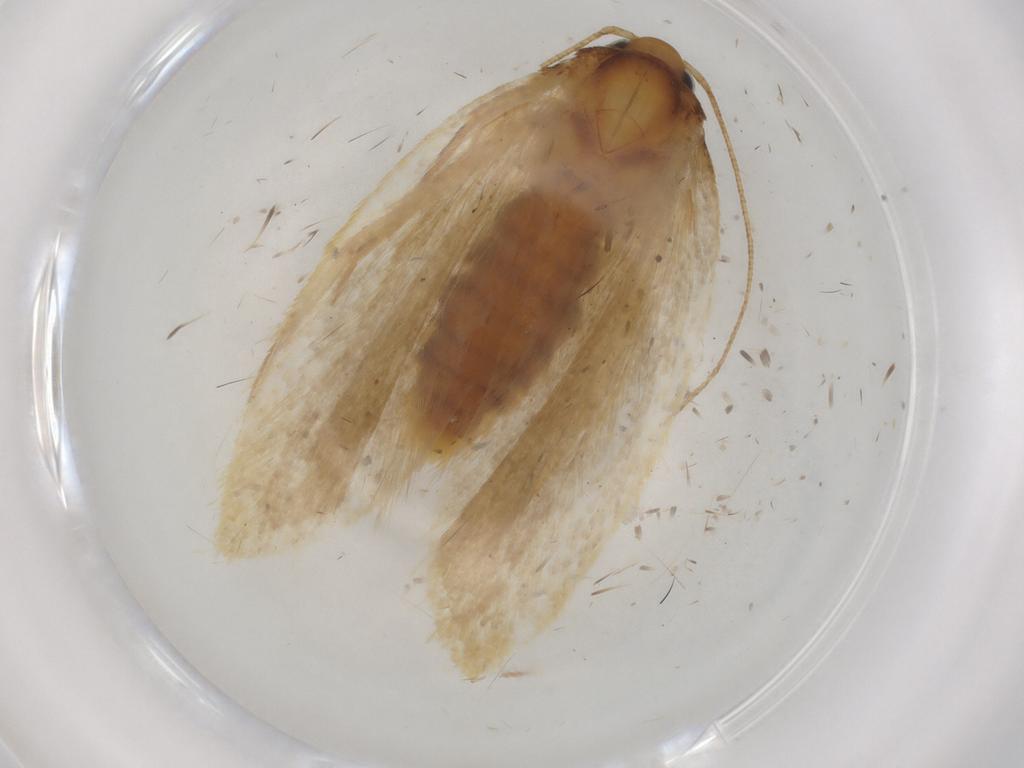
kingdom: Animalia
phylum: Arthropoda
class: Insecta
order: Lepidoptera
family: Depressariidae
